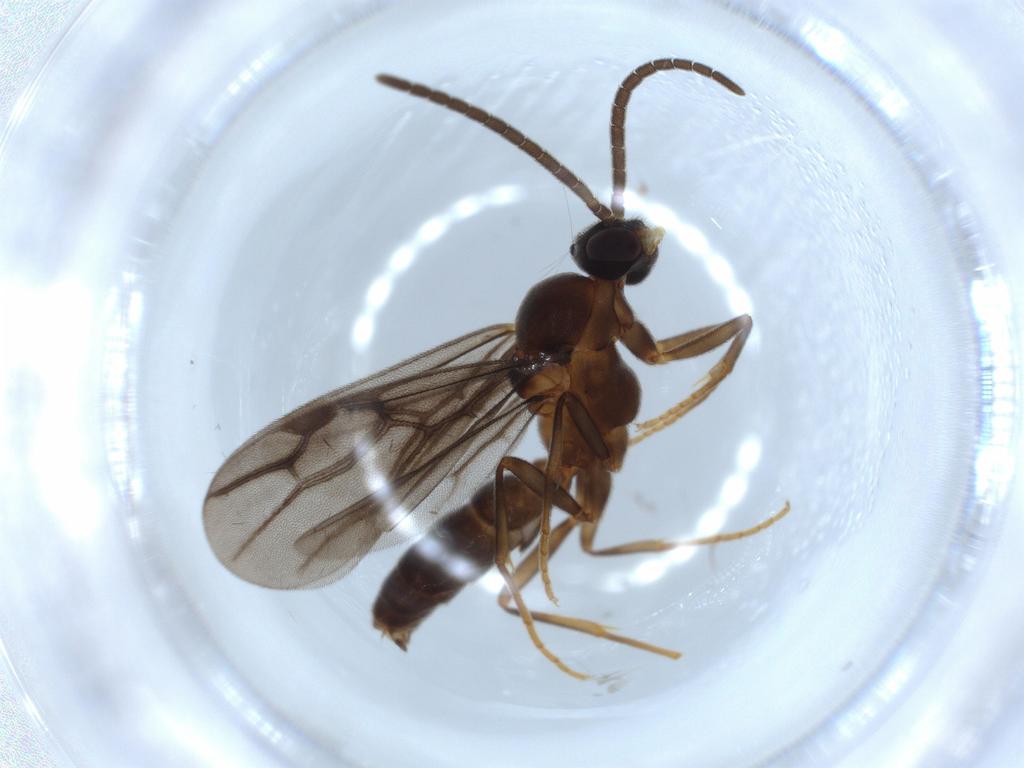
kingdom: Animalia
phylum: Arthropoda
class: Insecta
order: Hymenoptera
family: Formicidae
